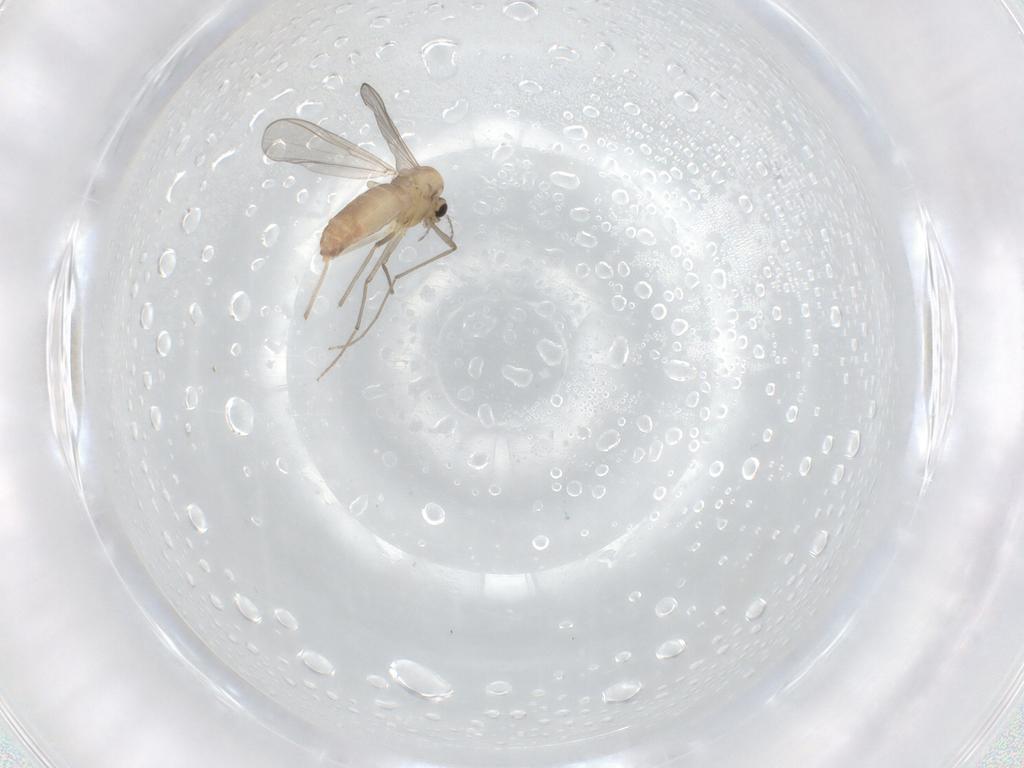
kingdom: Animalia
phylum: Arthropoda
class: Insecta
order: Diptera
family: Chironomidae
